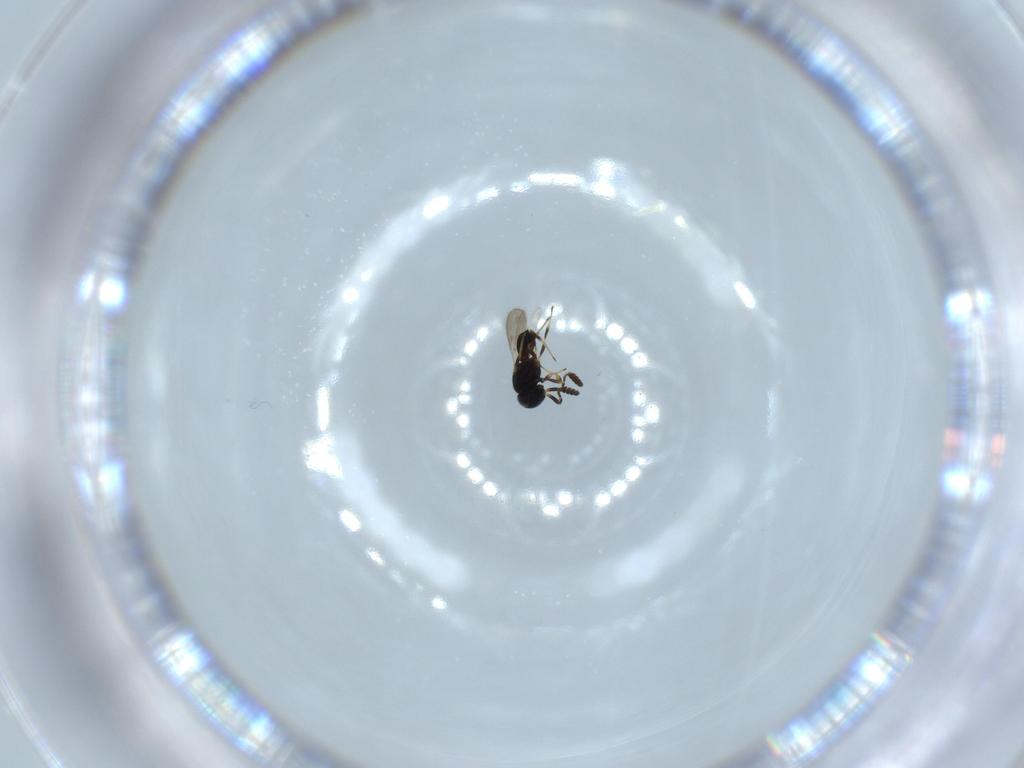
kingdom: Animalia
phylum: Arthropoda
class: Insecta
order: Hymenoptera
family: Scelionidae
